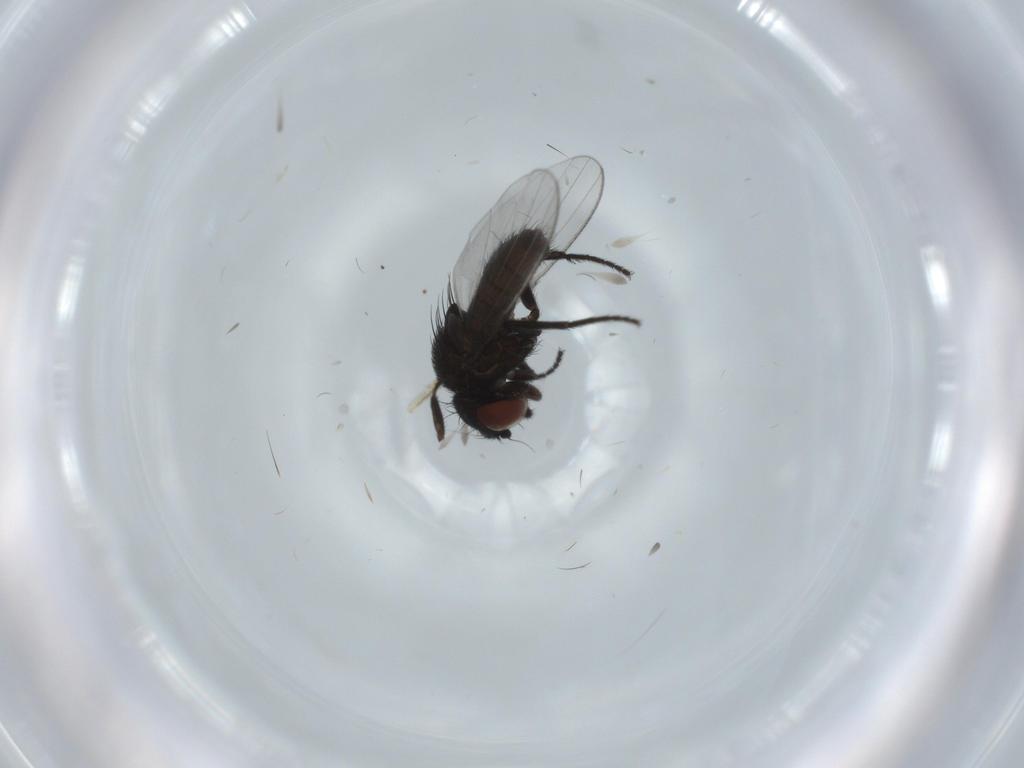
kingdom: Animalia
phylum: Arthropoda
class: Insecta
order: Diptera
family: Milichiidae
